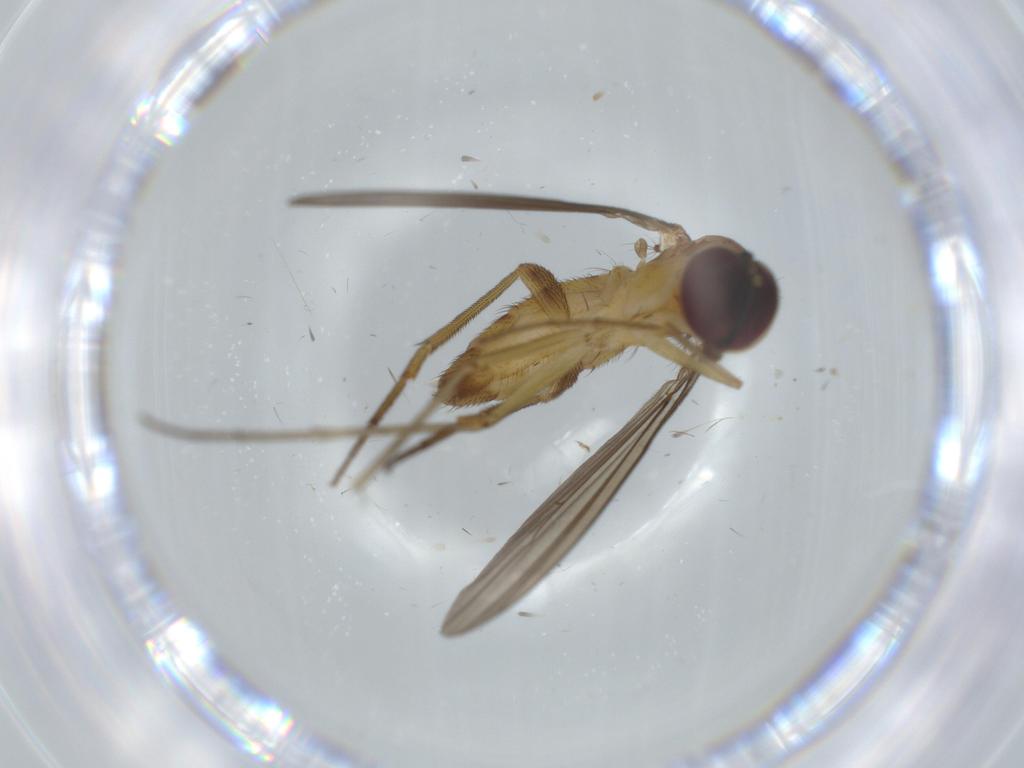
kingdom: Animalia
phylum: Arthropoda
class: Insecta
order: Diptera
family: Dolichopodidae
